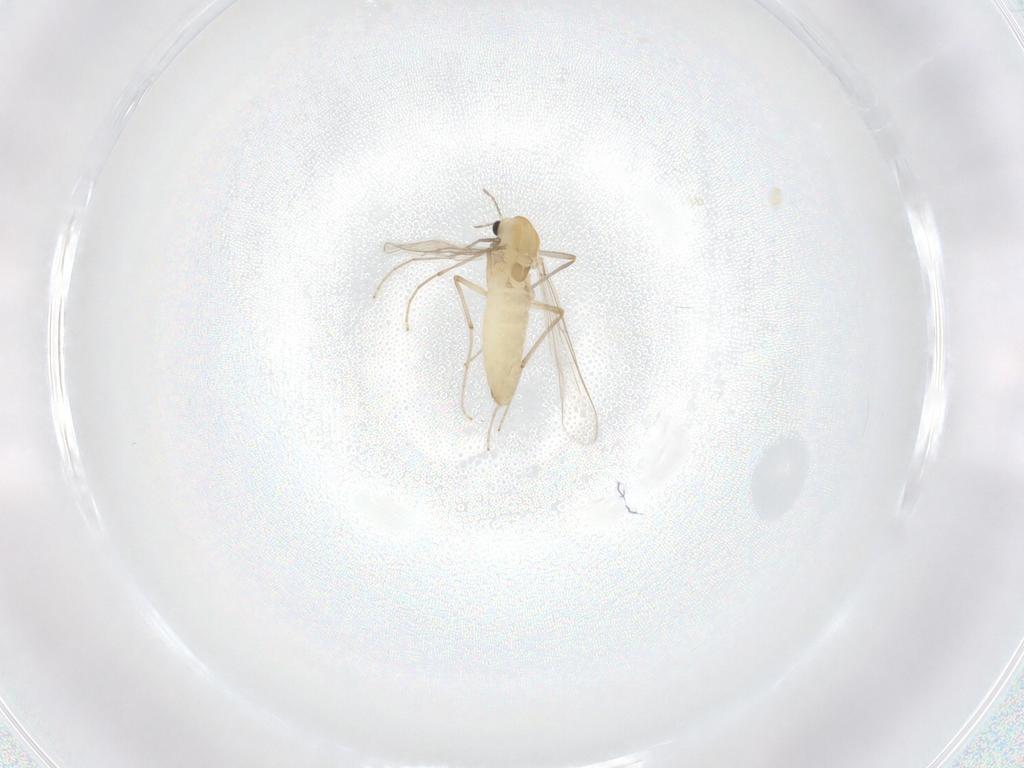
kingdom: Animalia
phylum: Arthropoda
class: Insecta
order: Diptera
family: Chironomidae
